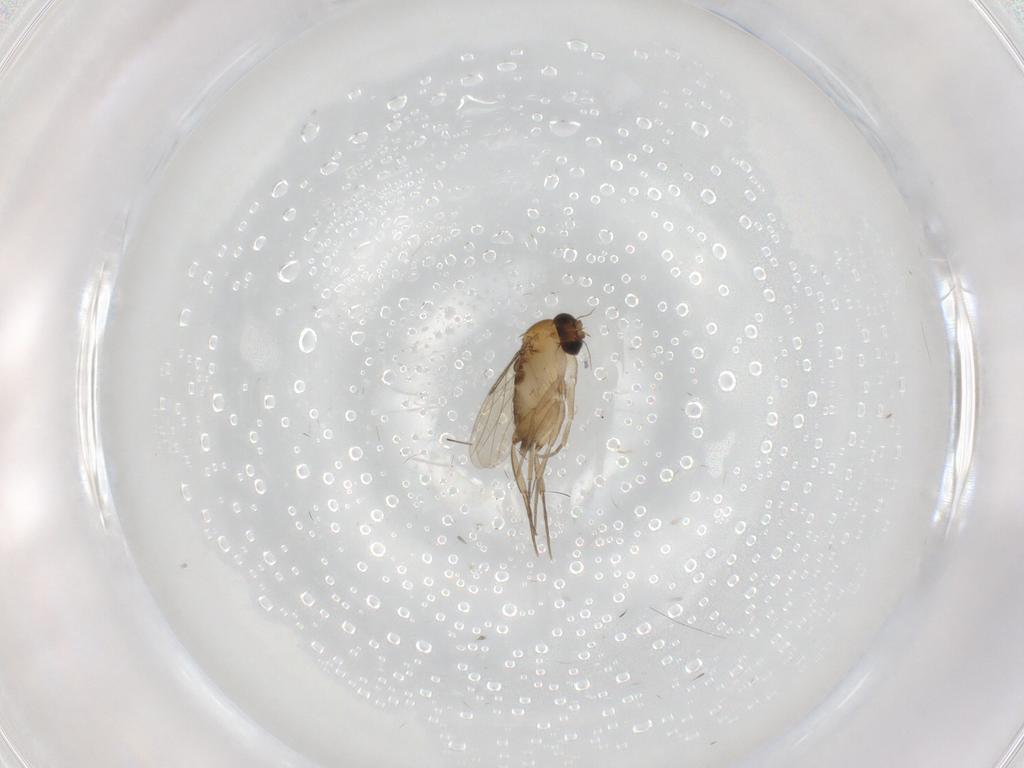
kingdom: Animalia
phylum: Arthropoda
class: Insecta
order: Diptera
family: Phoridae
